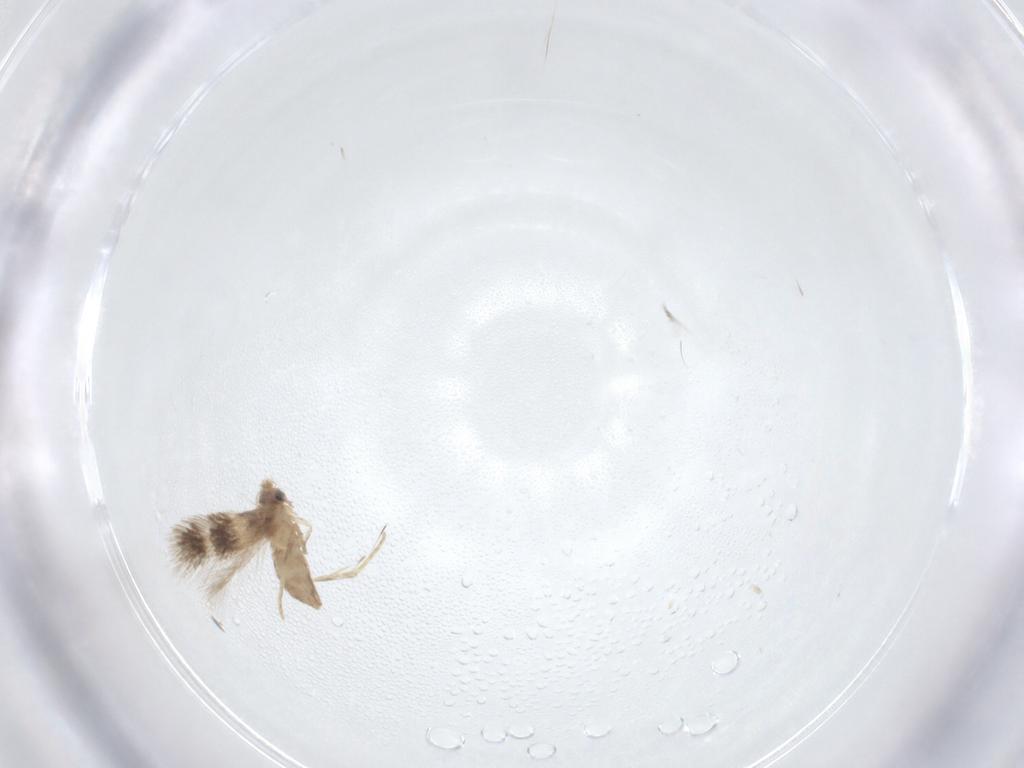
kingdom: Animalia
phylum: Arthropoda
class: Insecta
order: Lepidoptera
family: Nepticulidae
